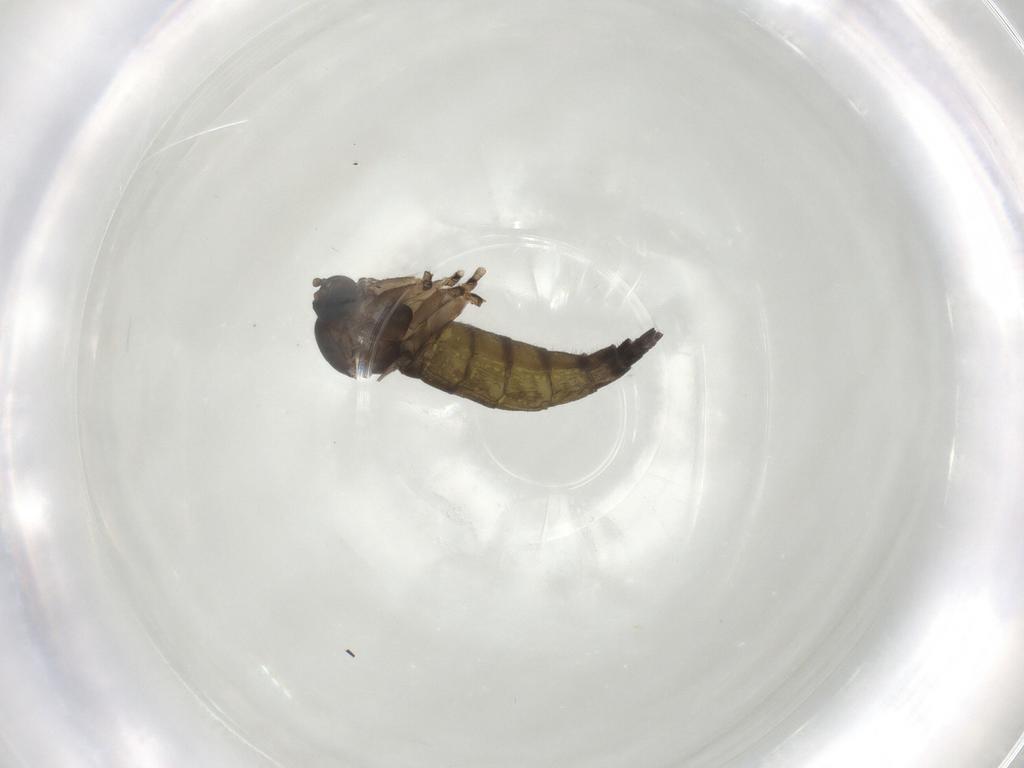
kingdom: Animalia
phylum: Arthropoda
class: Insecta
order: Diptera
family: Sciaridae
